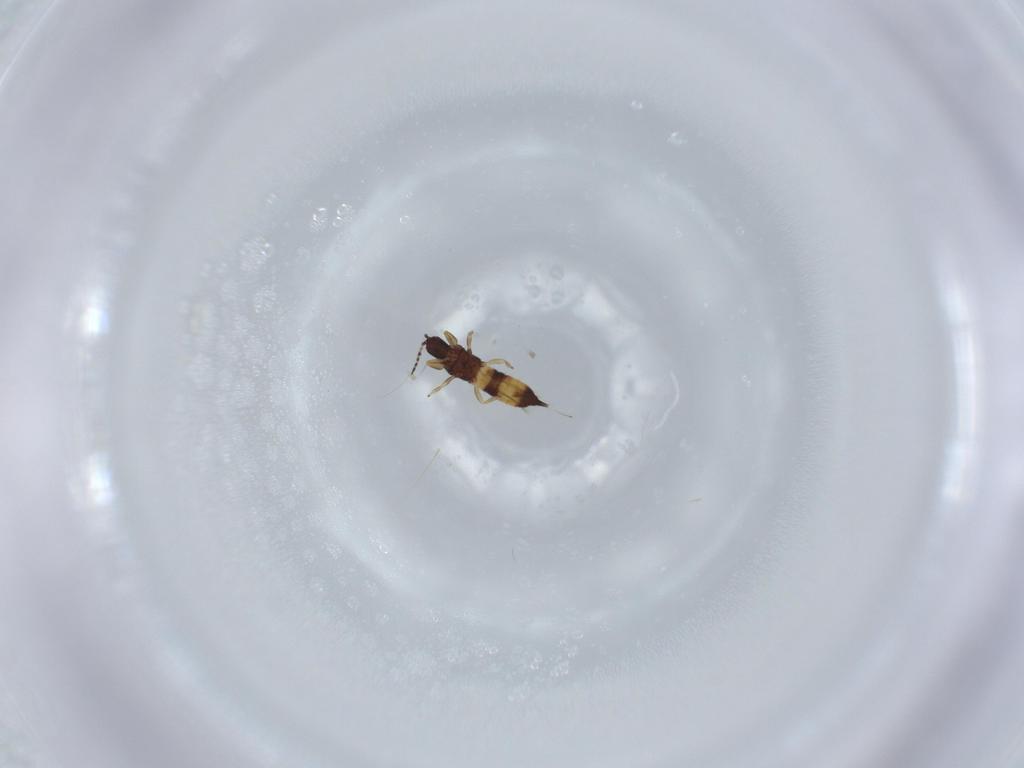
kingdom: Animalia
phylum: Arthropoda
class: Insecta
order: Thysanoptera
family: Phlaeothripidae
